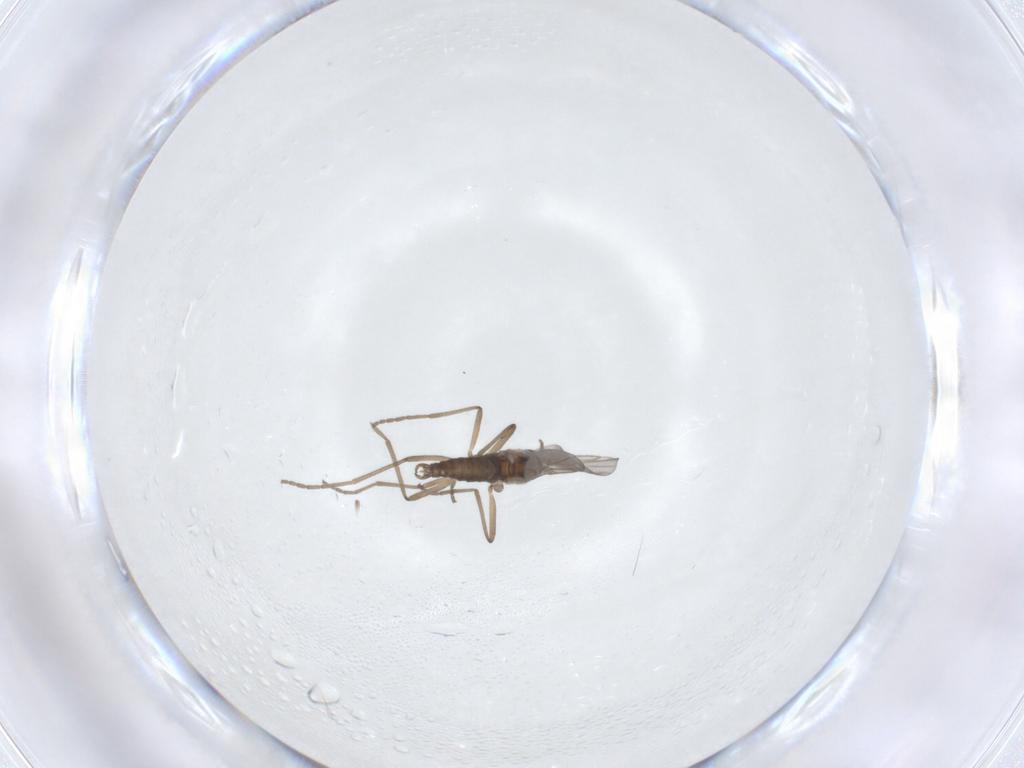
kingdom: Animalia
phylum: Arthropoda
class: Insecta
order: Diptera
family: Cecidomyiidae
